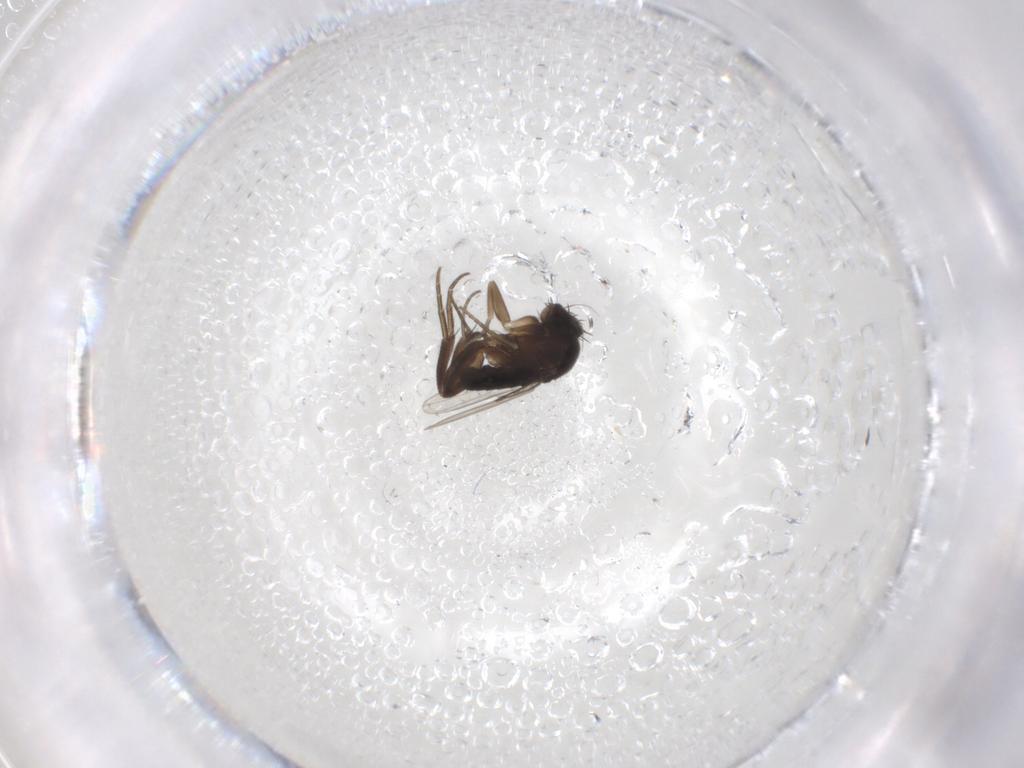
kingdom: Animalia
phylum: Arthropoda
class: Insecta
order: Diptera
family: Phoridae
